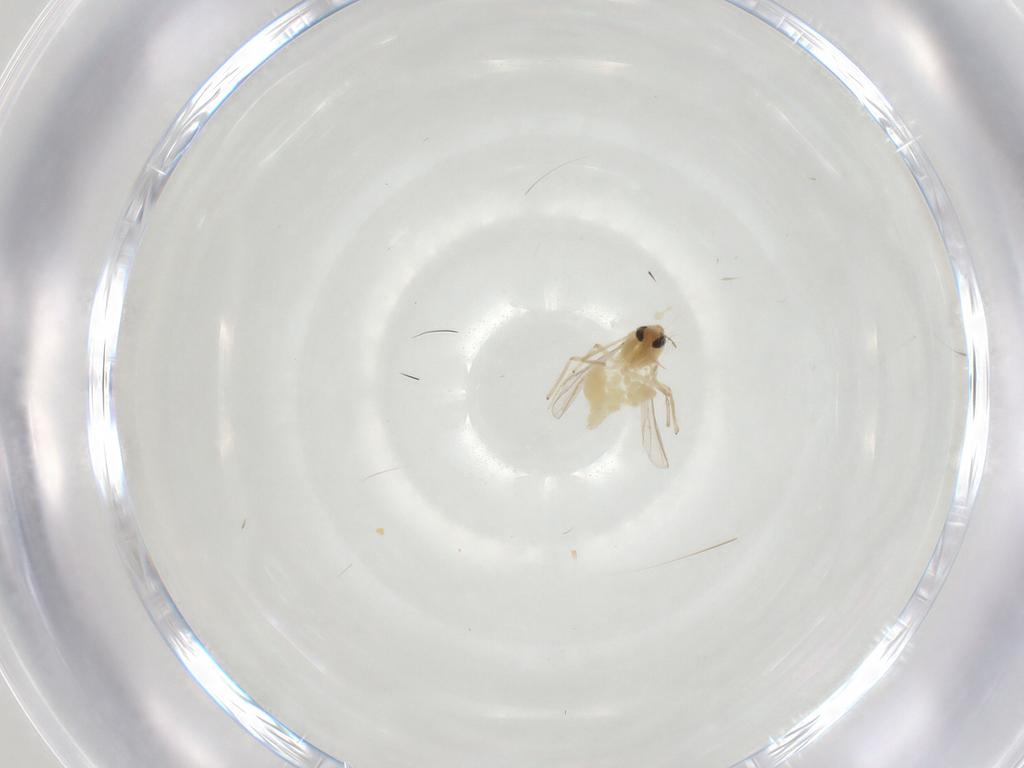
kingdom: Animalia
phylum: Arthropoda
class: Insecta
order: Diptera
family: Chironomidae
